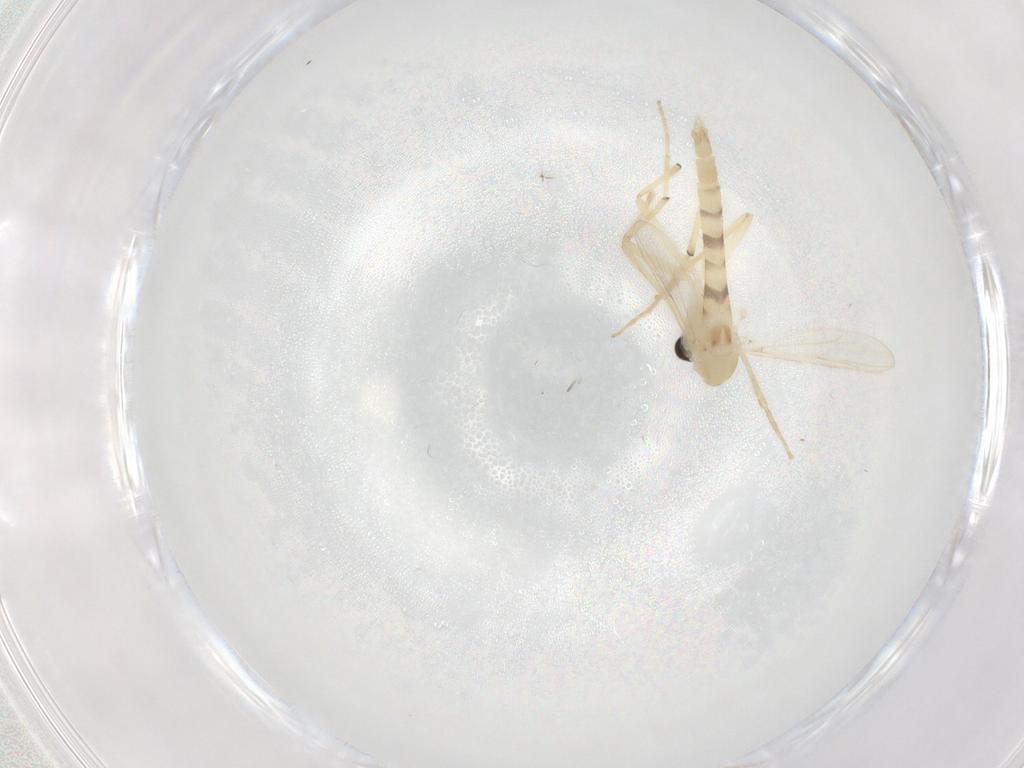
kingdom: Animalia
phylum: Arthropoda
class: Insecta
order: Diptera
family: Chironomidae
